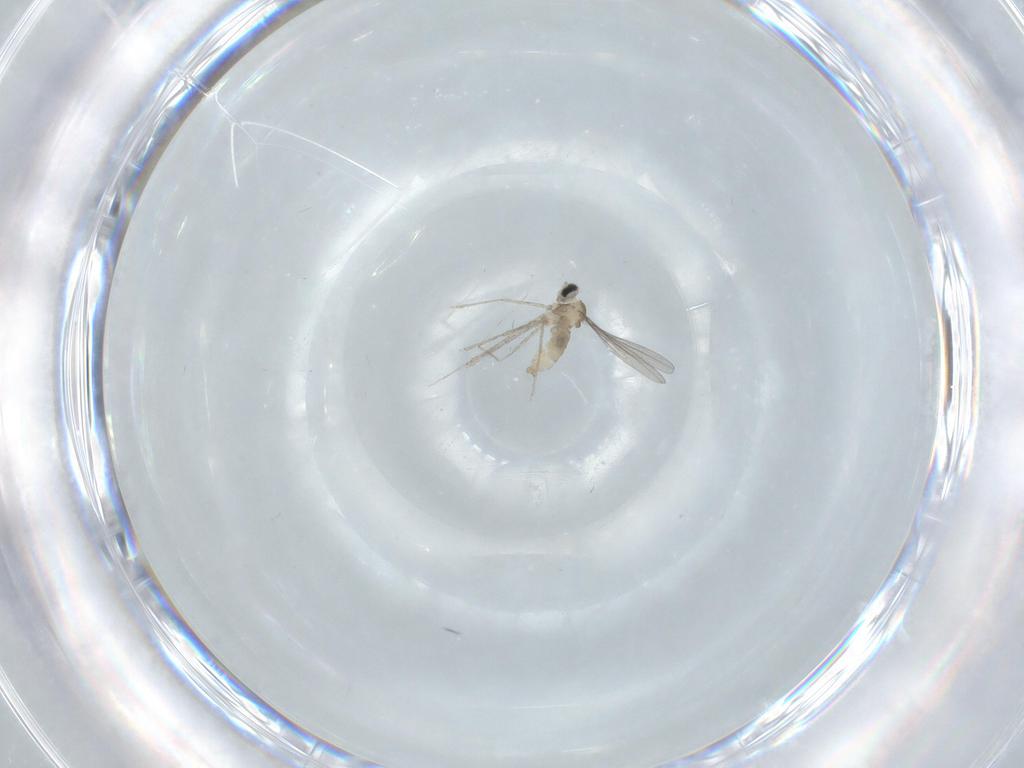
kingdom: Animalia
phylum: Arthropoda
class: Insecta
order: Diptera
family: Cecidomyiidae
